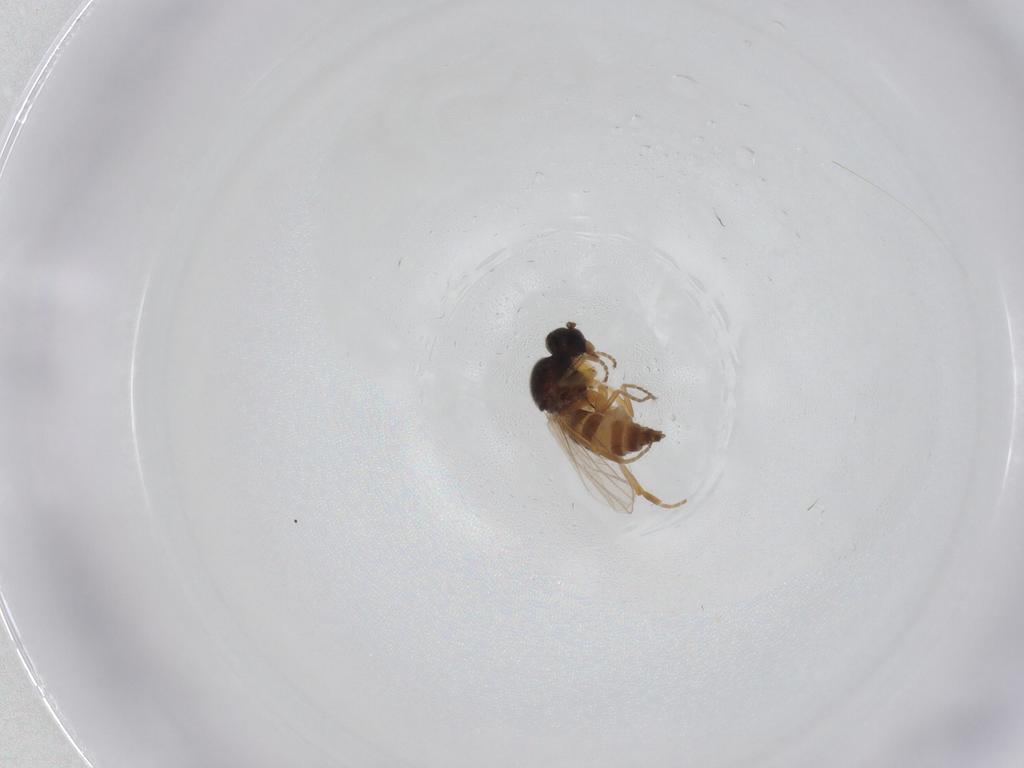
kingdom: Animalia
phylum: Arthropoda
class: Insecta
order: Diptera
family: Hybotidae
